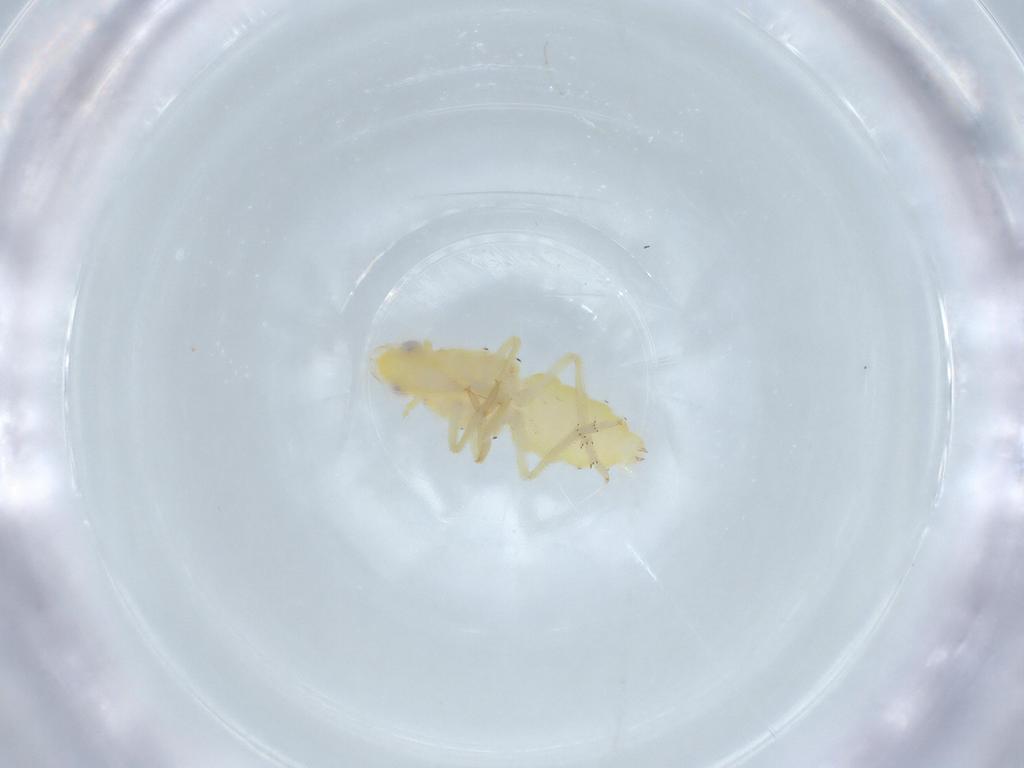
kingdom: Animalia
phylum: Arthropoda
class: Insecta
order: Hemiptera
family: Tropiduchidae
